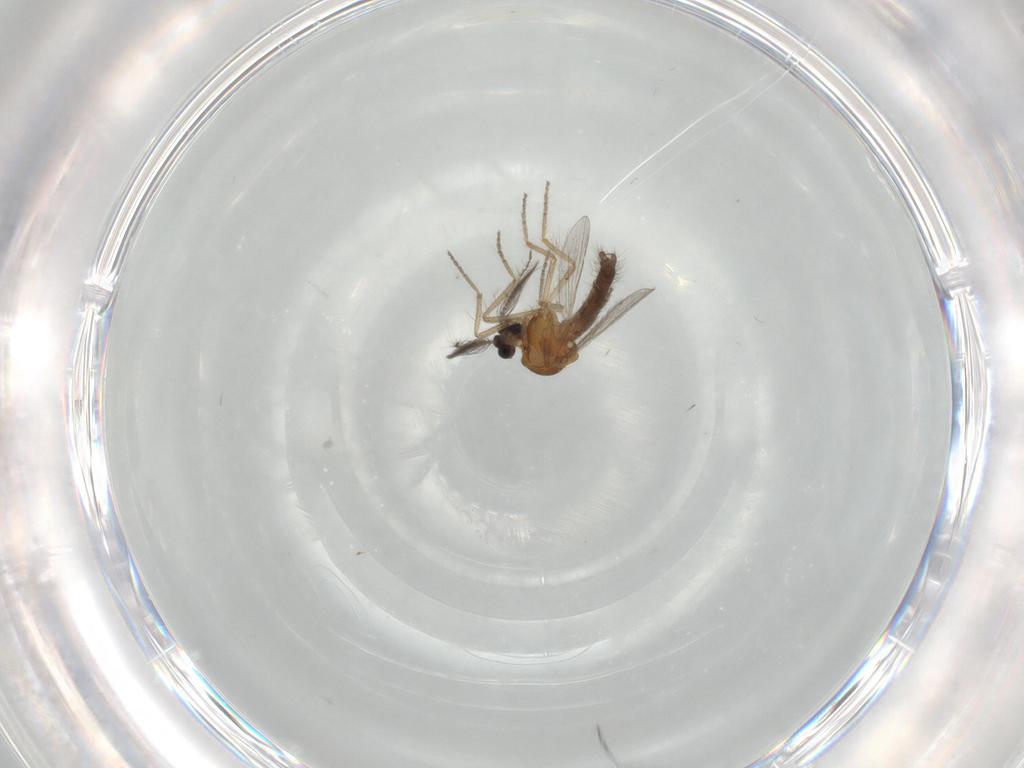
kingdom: Animalia
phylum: Arthropoda
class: Insecta
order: Diptera
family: Ceratopogonidae
